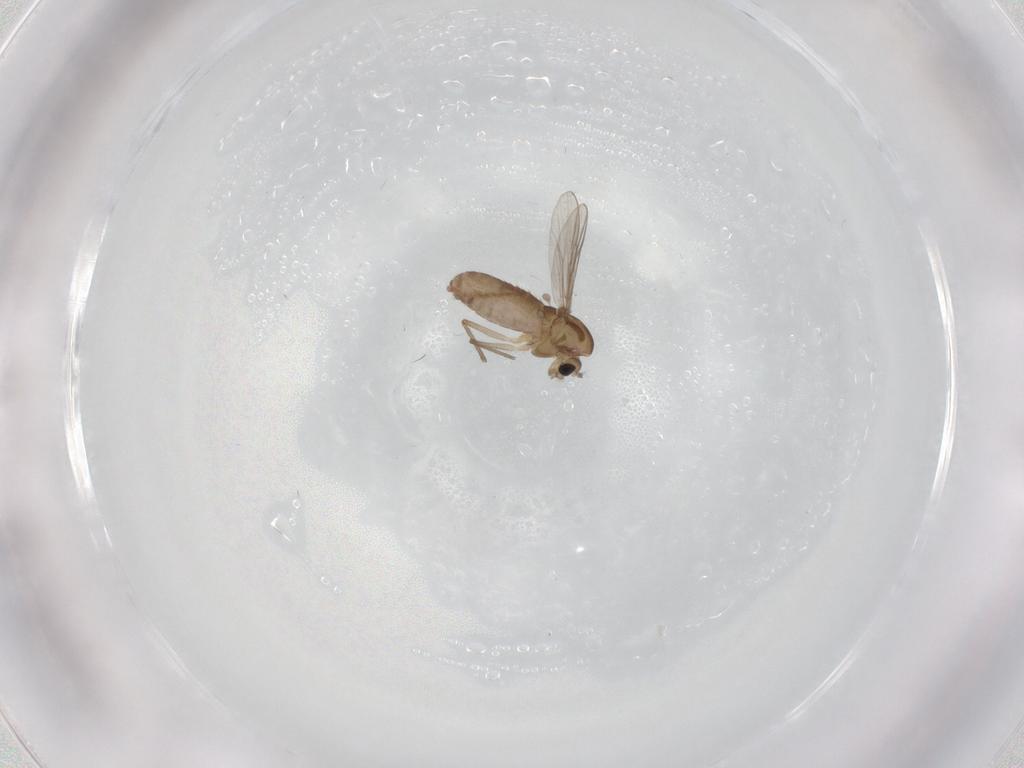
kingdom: Animalia
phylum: Arthropoda
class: Insecta
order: Diptera
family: Chironomidae
